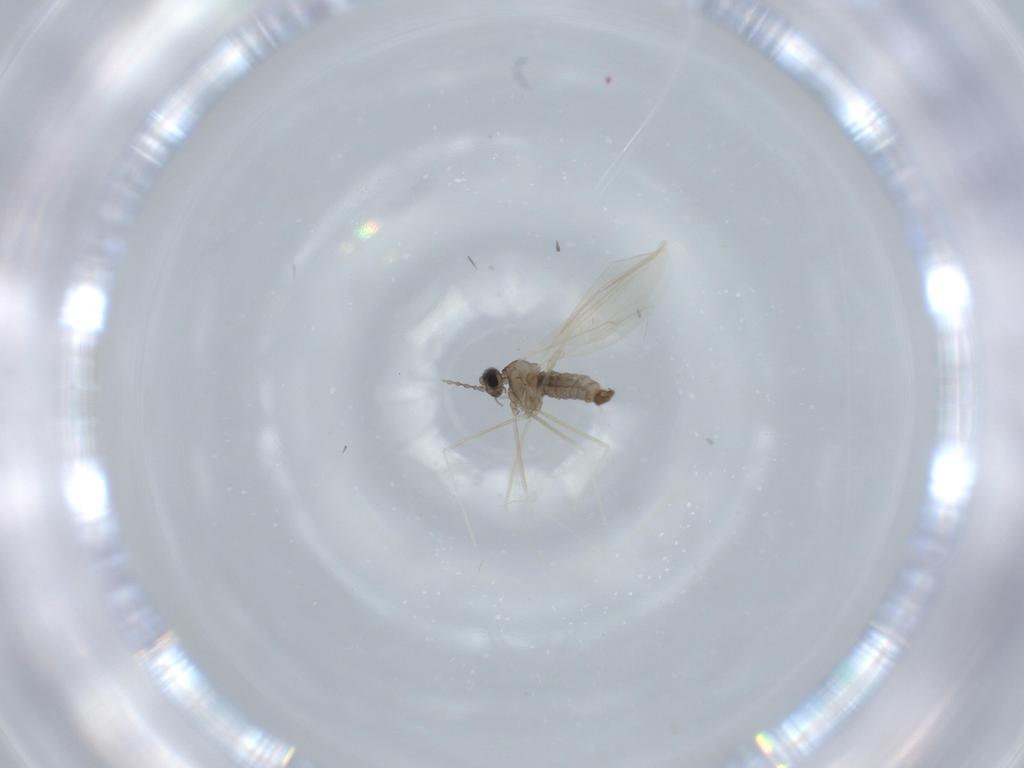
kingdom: Animalia
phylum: Arthropoda
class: Insecta
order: Diptera
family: Cecidomyiidae
